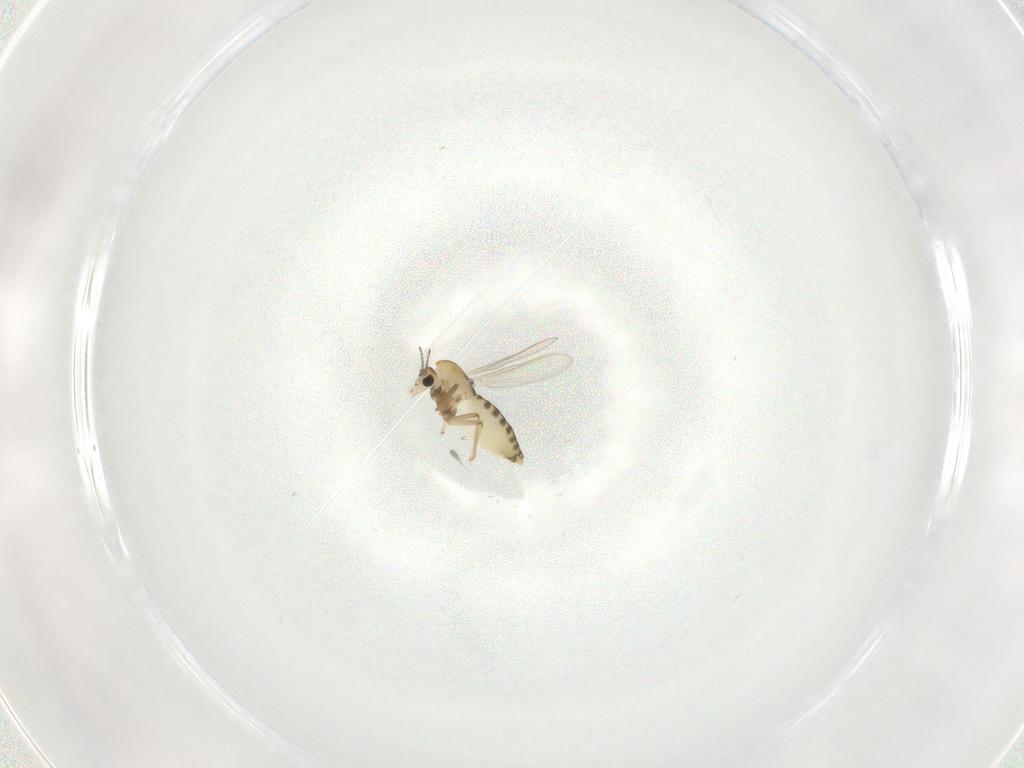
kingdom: Animalia
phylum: Arthropoda
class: Insecta
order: Diptera
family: Chironomidae
